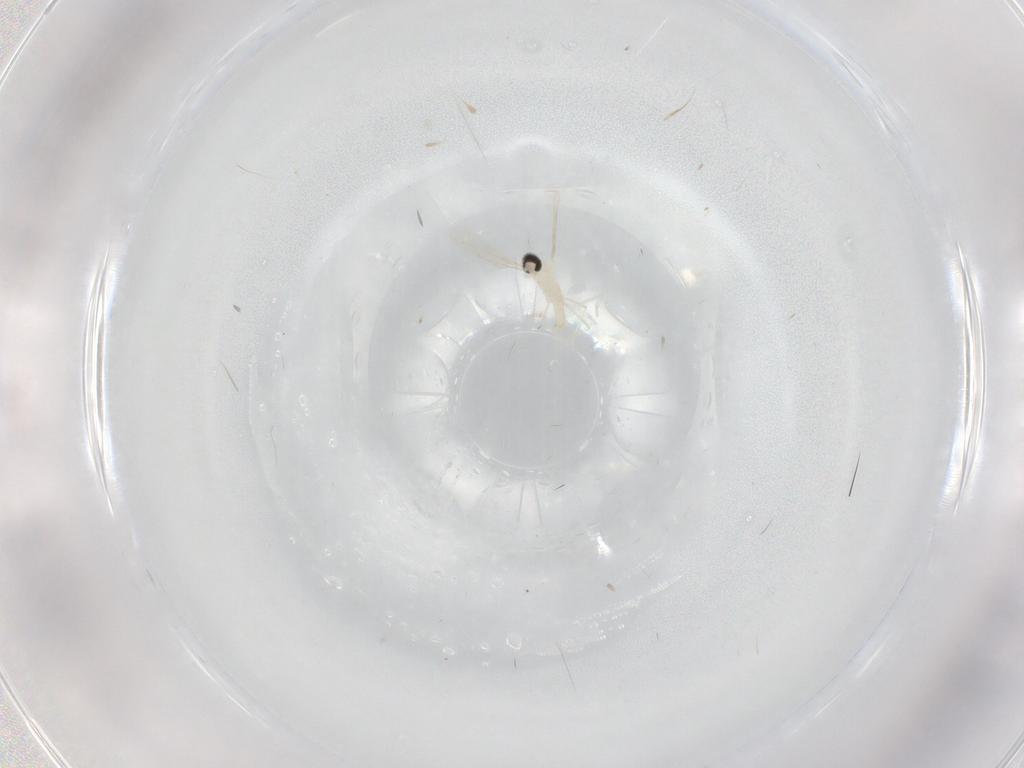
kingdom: Animalia
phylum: Arthropoda
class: Insecta
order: Diptera
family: Cecidomyiidae
